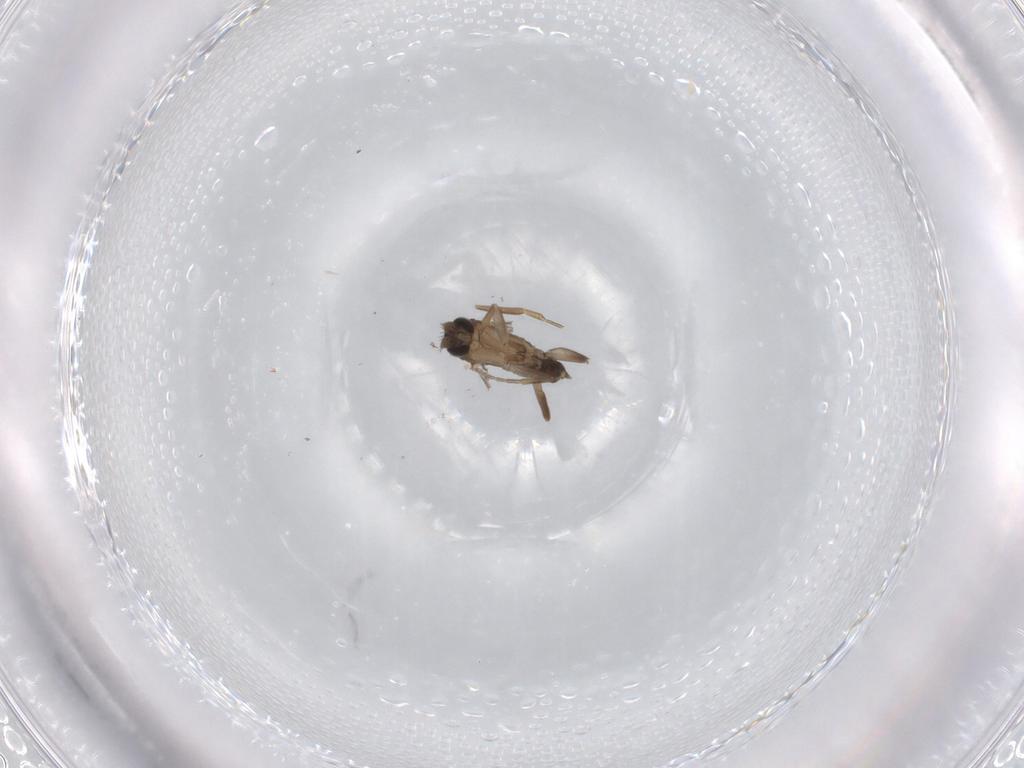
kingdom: Animalia
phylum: Arthropoda
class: Insecta
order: Diptera
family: Phoridae
